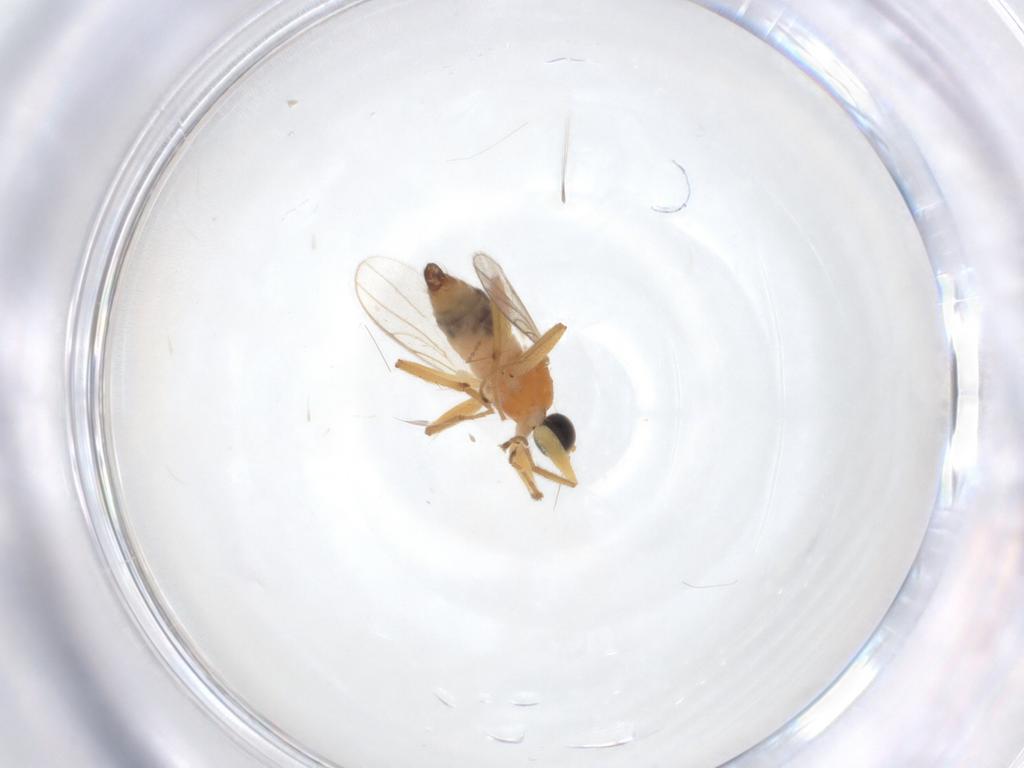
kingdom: Animalia
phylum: Arthropoda
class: Insecta
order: Diptera
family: Hybotidae
